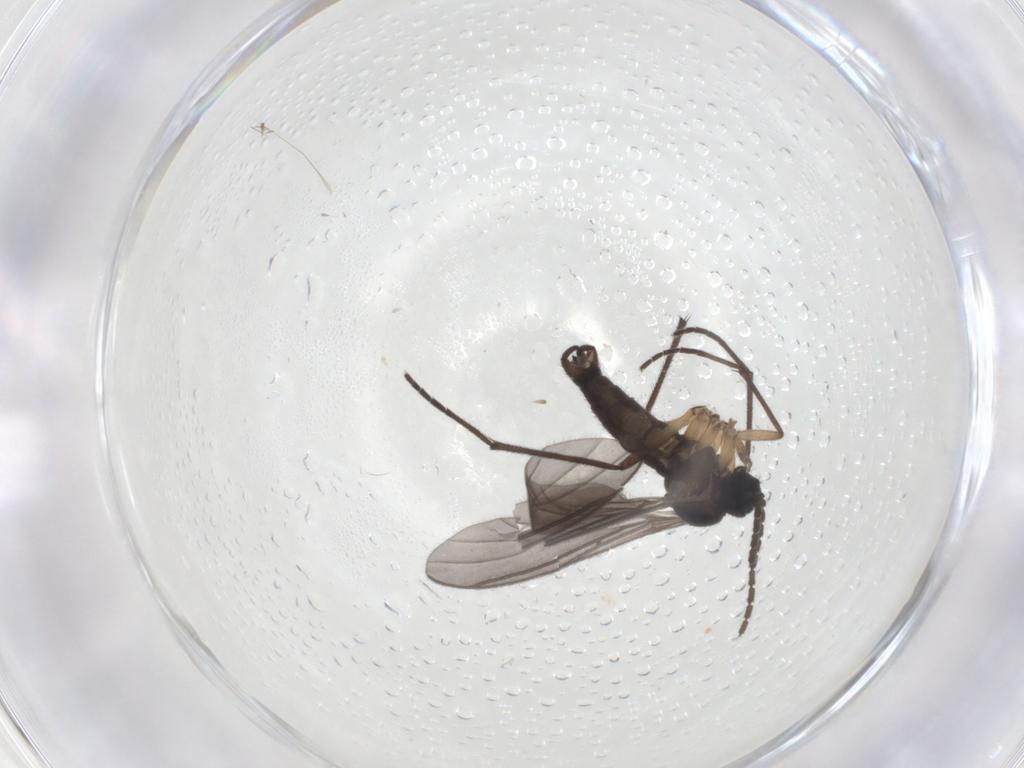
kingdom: Animalia
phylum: Arthropoda
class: Insecta
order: Diptera
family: Sciaridae
